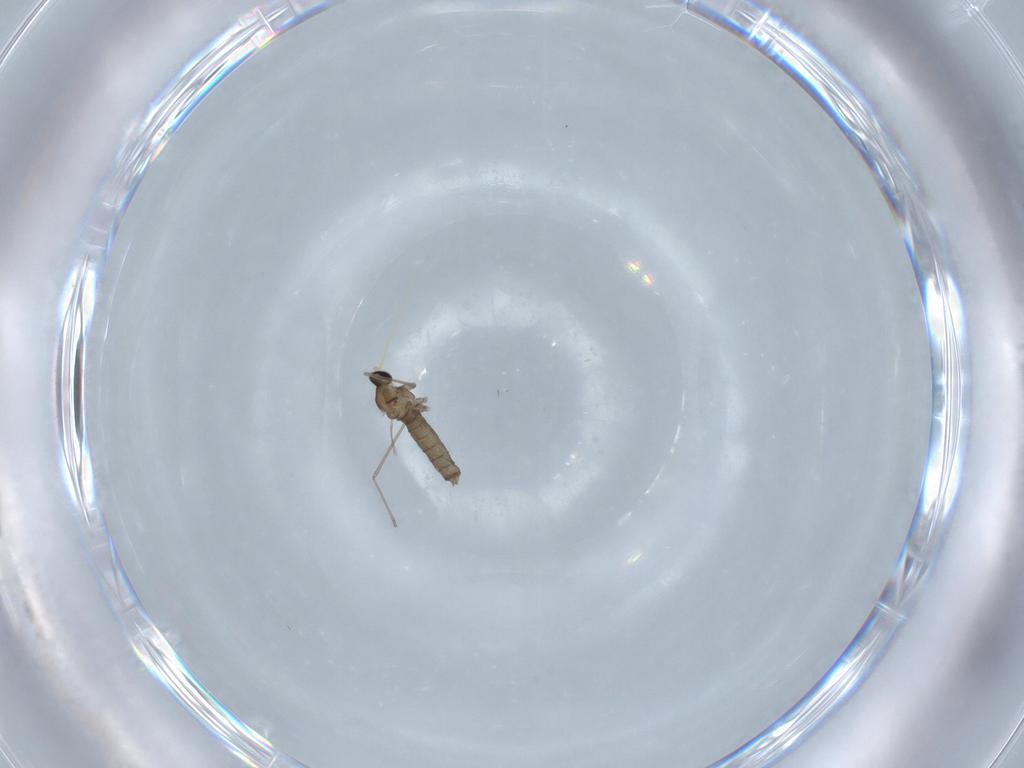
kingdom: Animalia
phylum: Arthropoda
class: Insecta
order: Diptera
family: Cecidomyiidae
